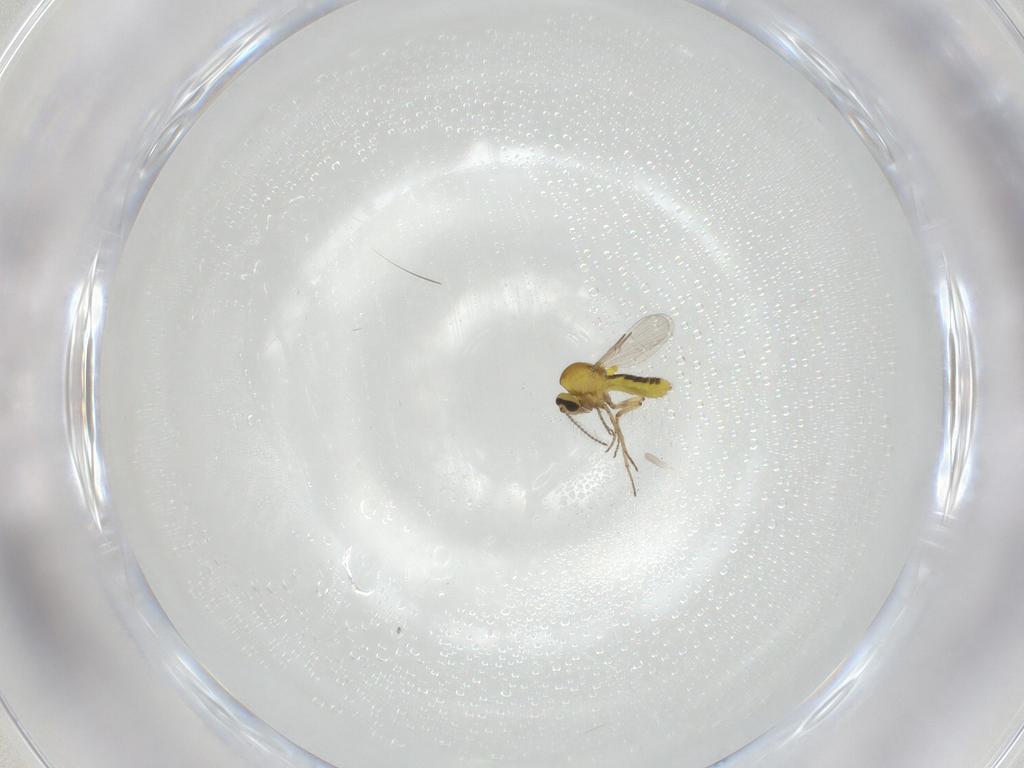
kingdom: Animalia
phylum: Arthropoda
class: Insecta
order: Diptera
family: Ceratopogonidae
